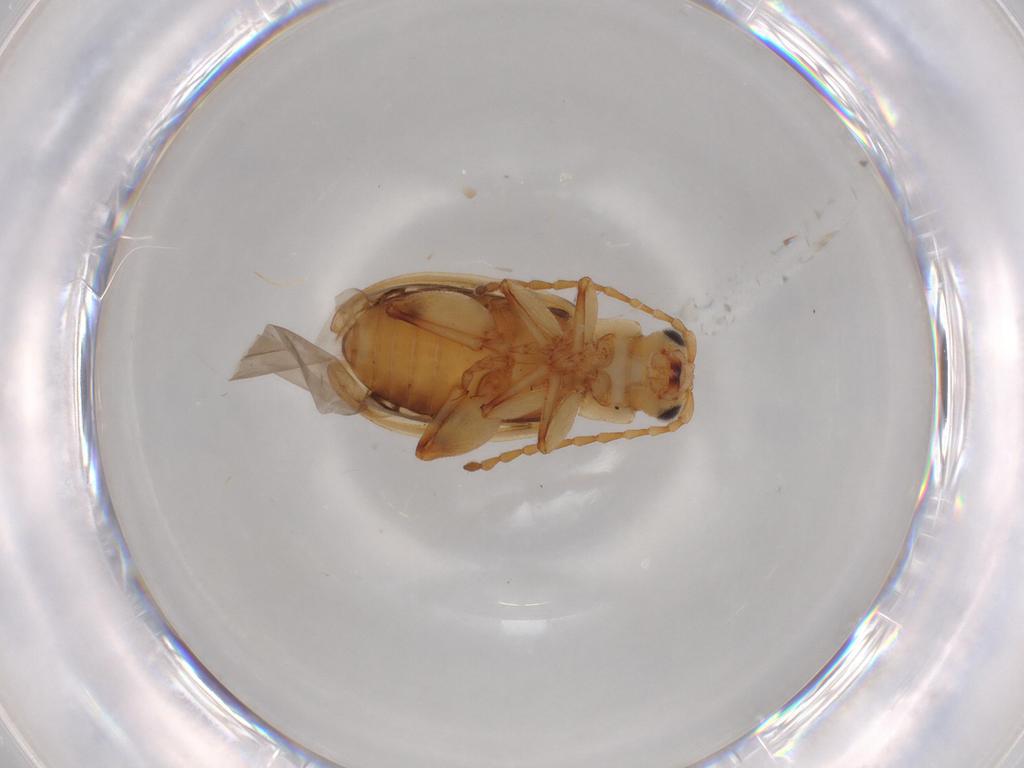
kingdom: Animalia
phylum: Arthropoda
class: Insecta
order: Coleoptera
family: Chrysomelidae
